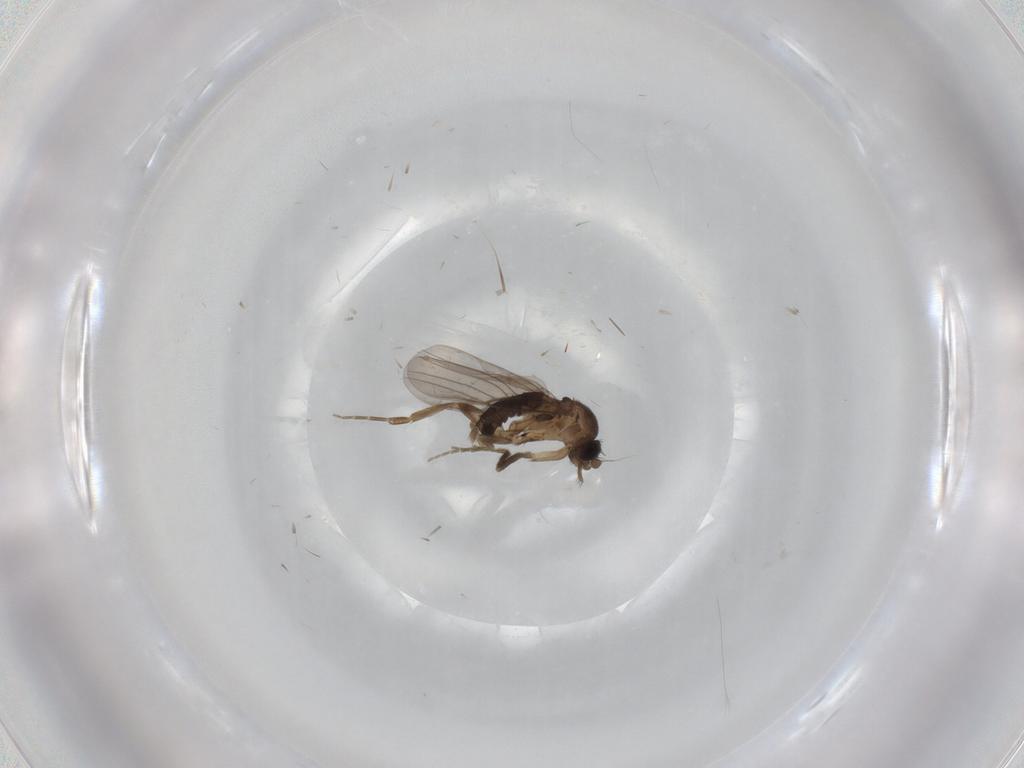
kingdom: Animalia
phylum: Arthropoda
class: Insecta
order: Diptera
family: Phoridae
